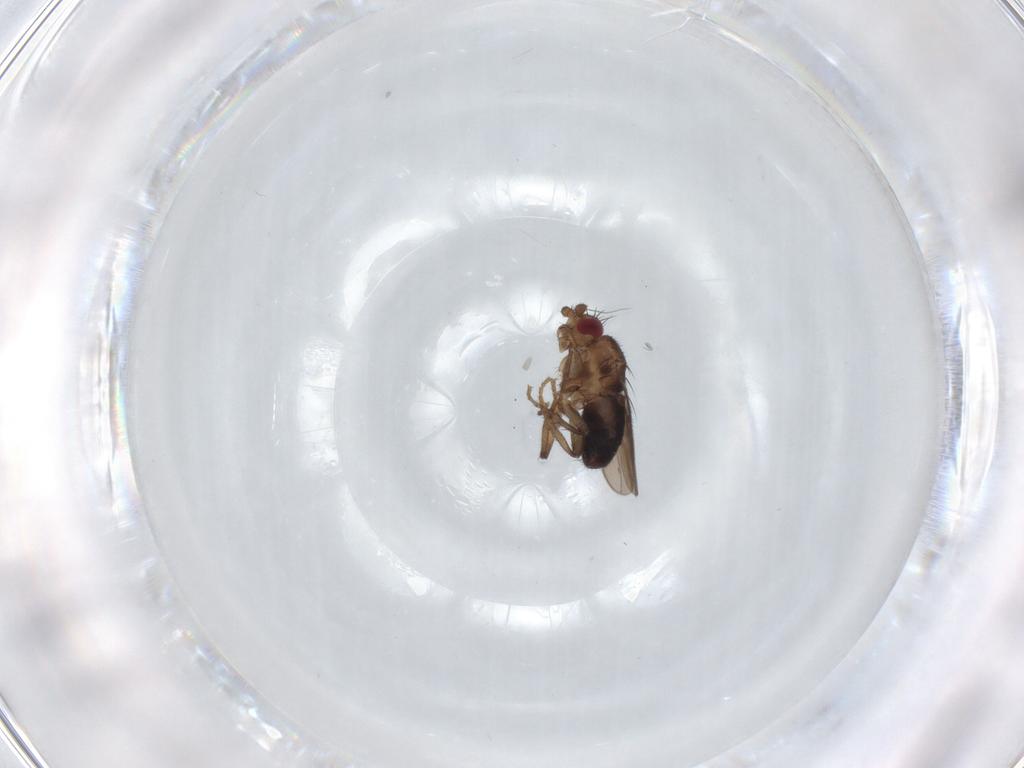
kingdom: Animalia
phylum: Arthropoda
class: Insecta
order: Diptera
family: Sphaeroceridae
